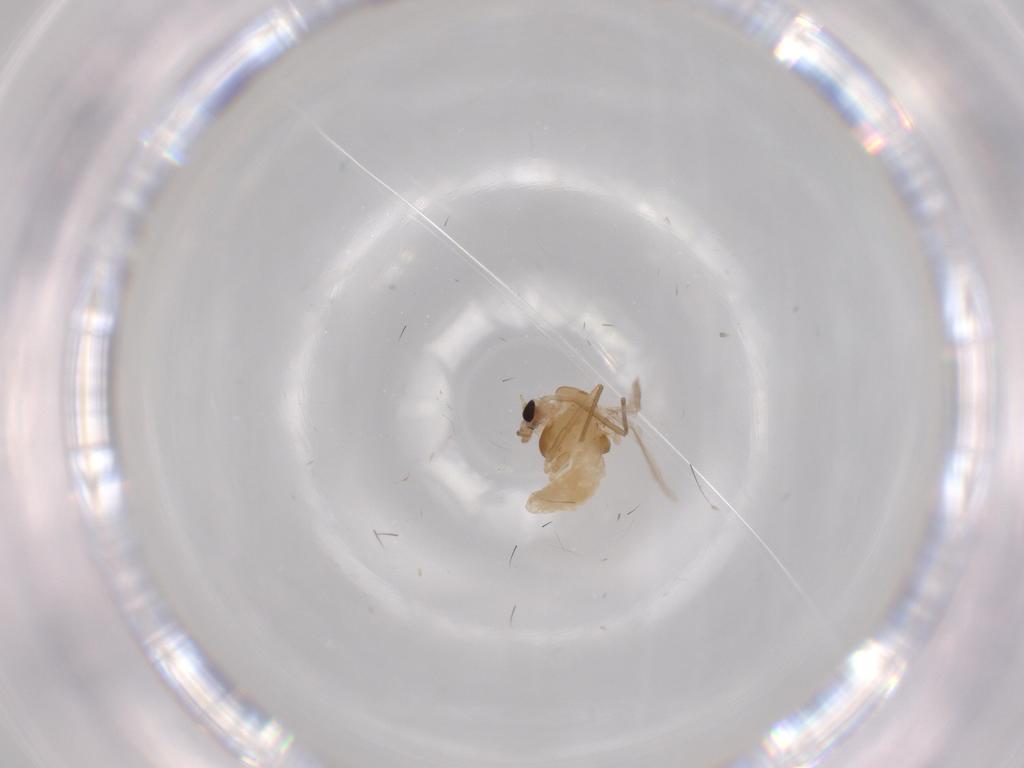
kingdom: Animalia
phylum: Arthropoda
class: Insecta
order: Diptera
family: Chironomidae
